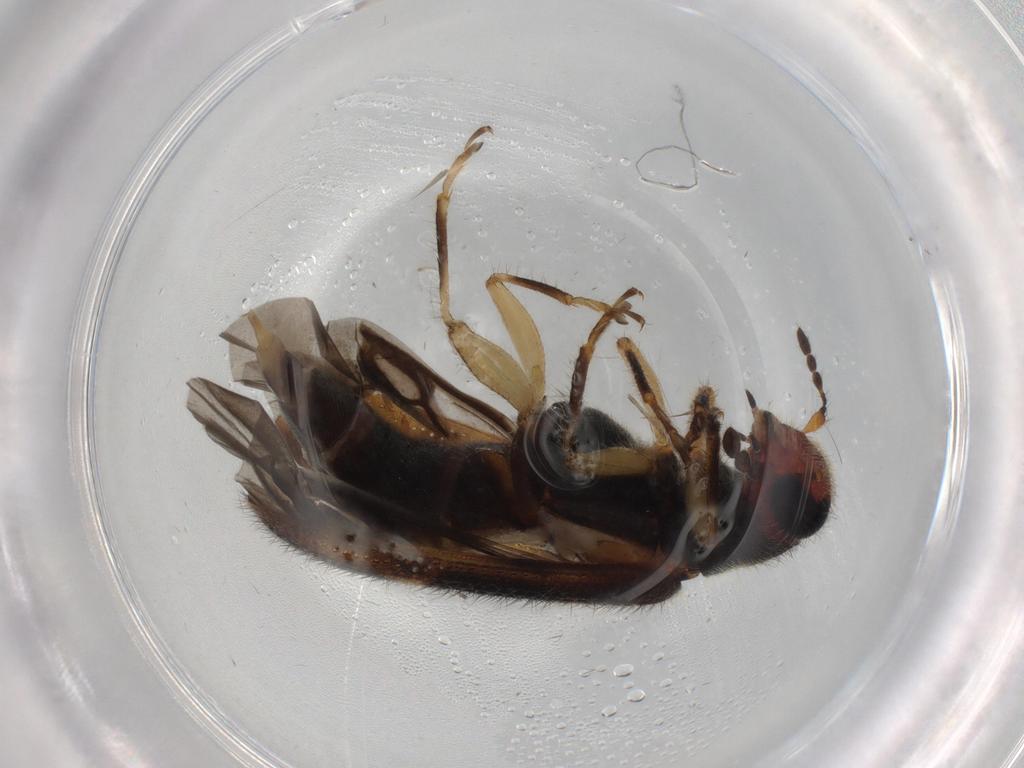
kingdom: Animalia
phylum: Arthropoda
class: Insecta
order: Coleoptera
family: Cleridae
